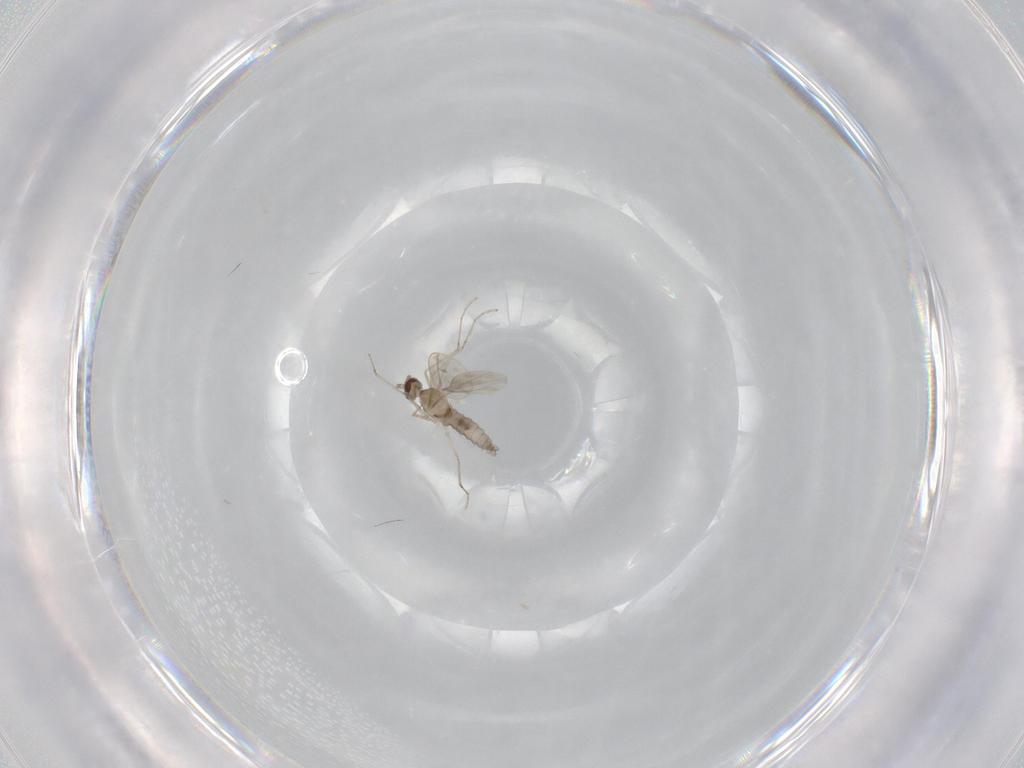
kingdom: Animalia
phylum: Arthropoda
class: Insecta
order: Diptera
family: Cecidomyiidae
